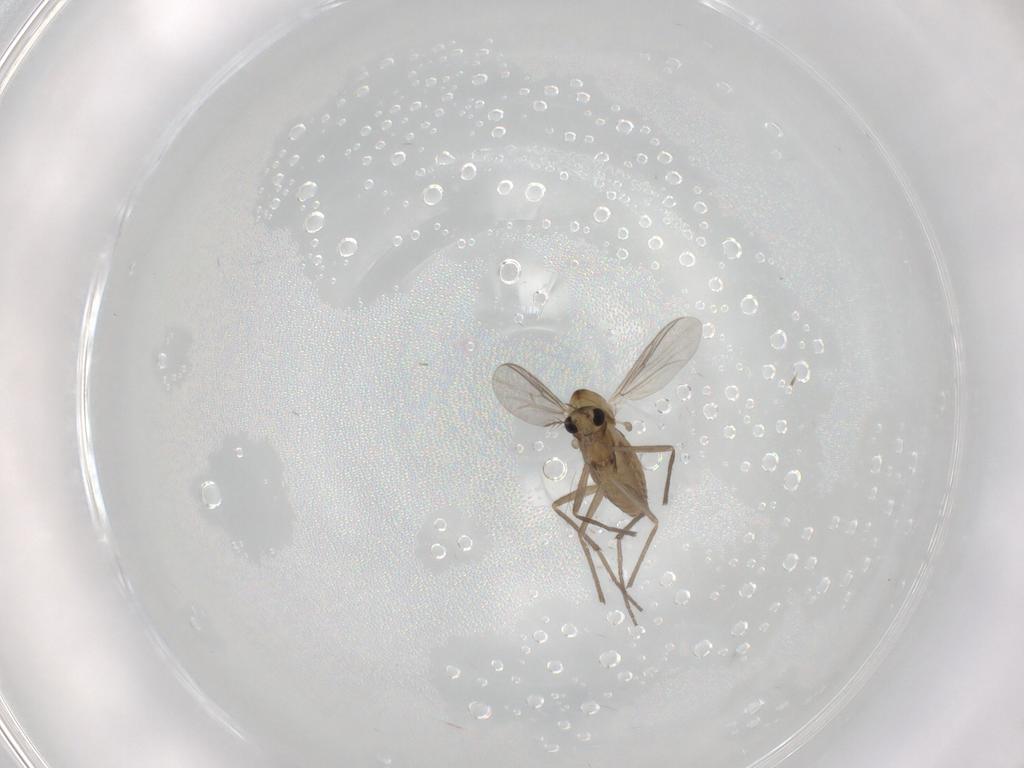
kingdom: Animalia
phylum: Arthropoda
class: Insecta
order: Diptera
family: Chironomidae
